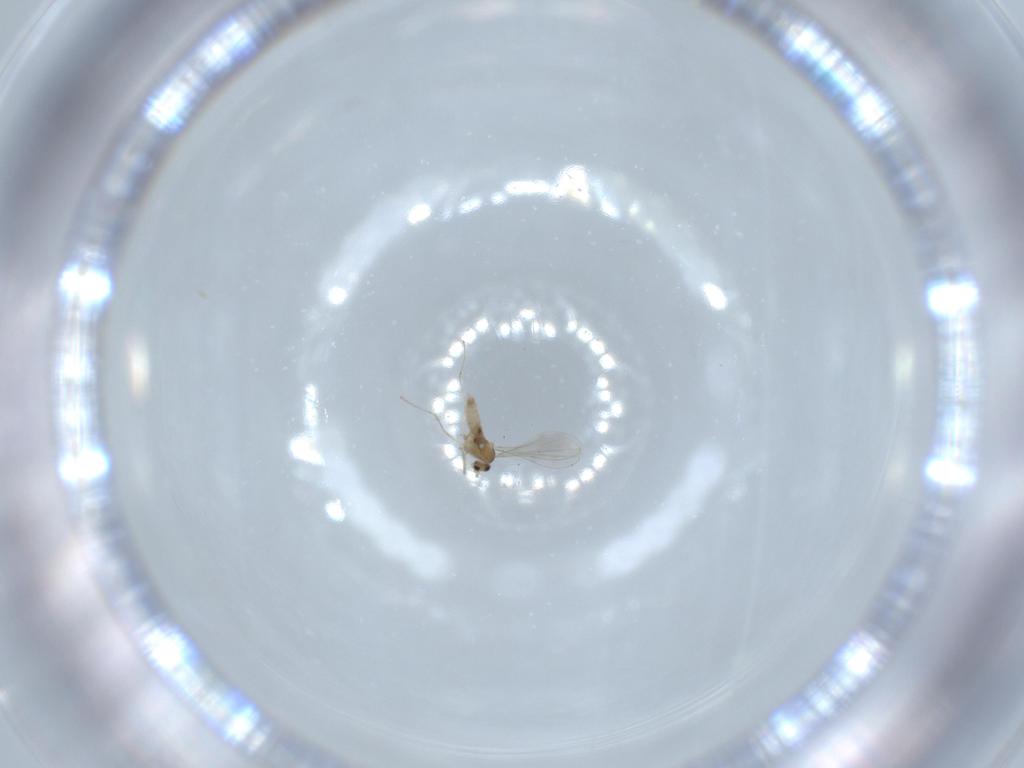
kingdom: Animalia
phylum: Arthropoda
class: Insecta
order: Diptera
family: Cecidomyiidae
